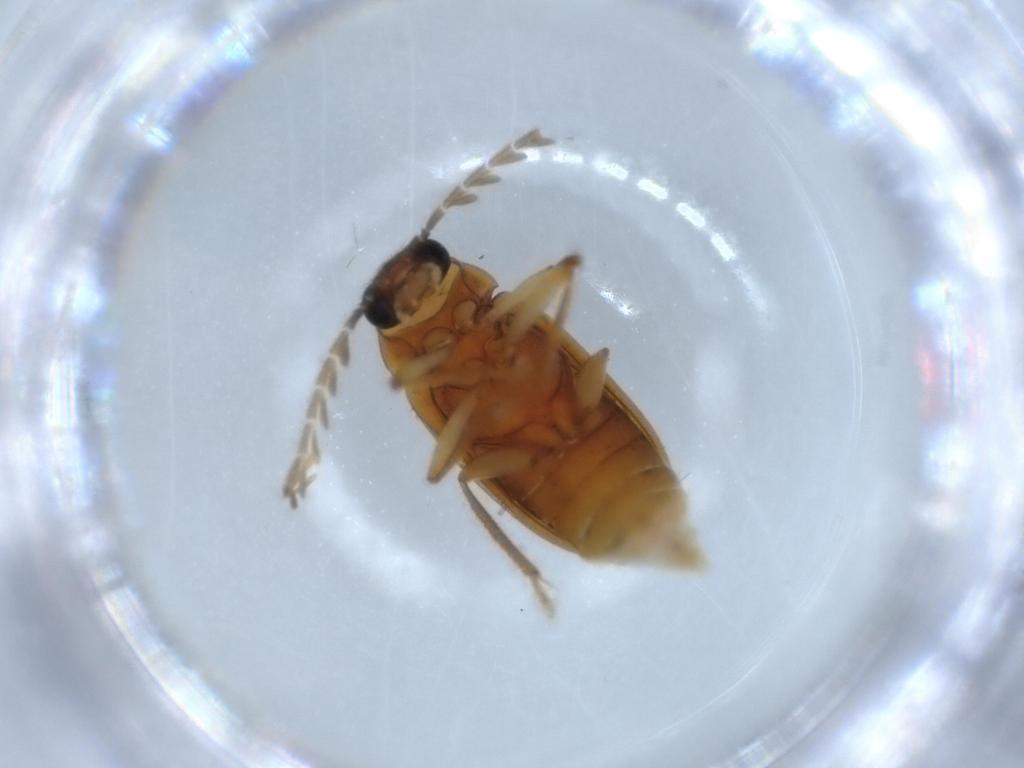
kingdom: Animalia
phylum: Arthropoda
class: Insecta
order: Coleoptera
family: Ptilodactylidae
